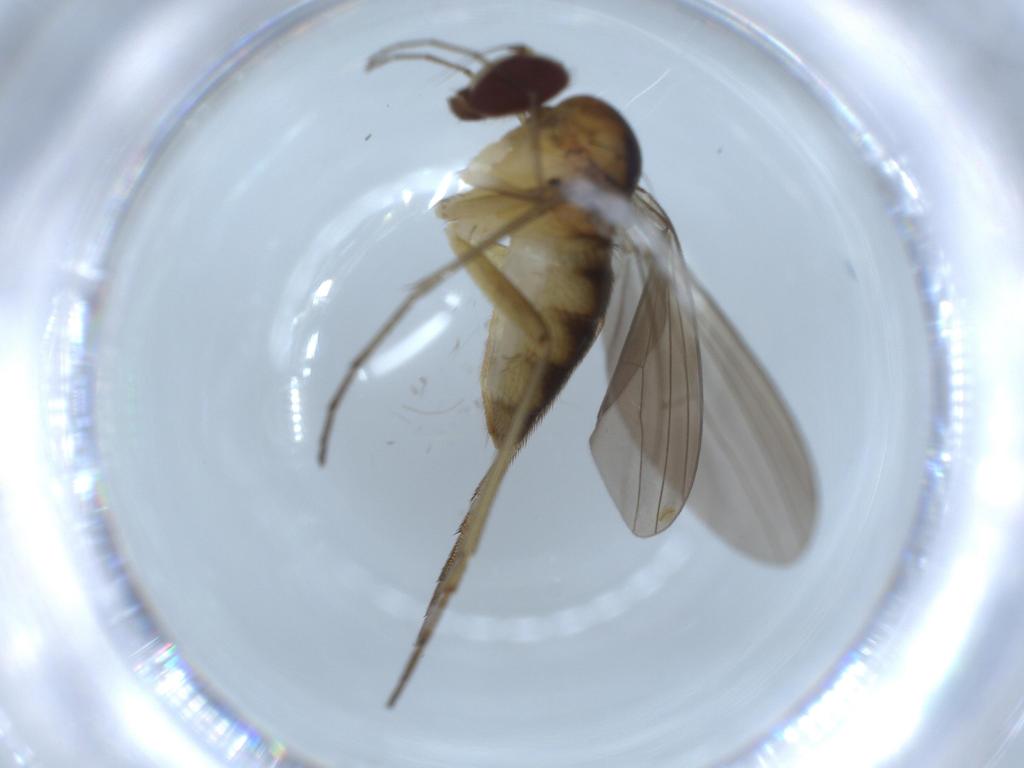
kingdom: Animalia
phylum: Arthropoda
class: Insecta
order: Diptera
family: Dolichopodidae
